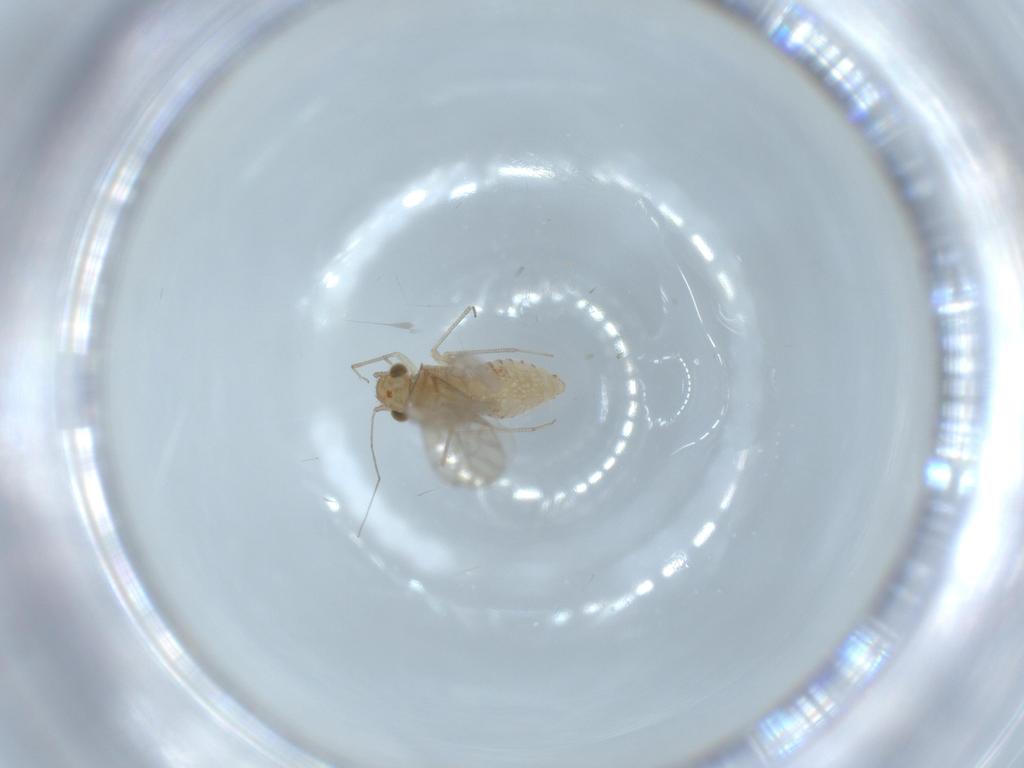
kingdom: Animalia
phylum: Arthropoda
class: Insecta
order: Psocodea
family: Lachesillidae
